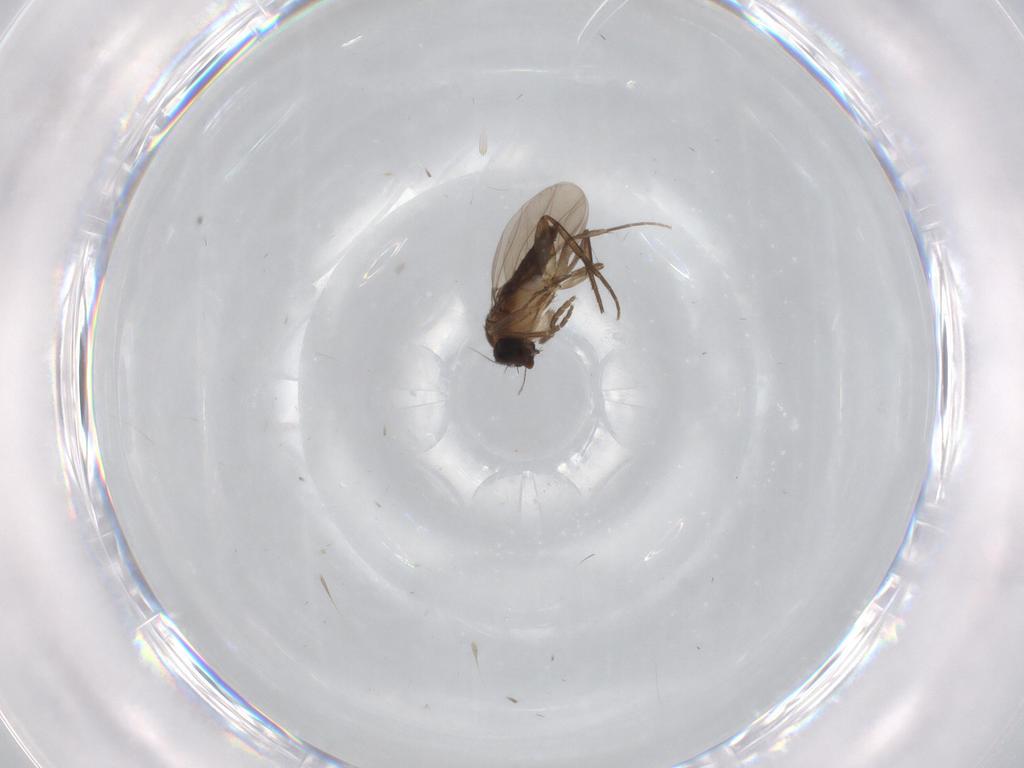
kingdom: Animalia
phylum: Arthropoda
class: Insecta
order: Diptera
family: Phoridae
